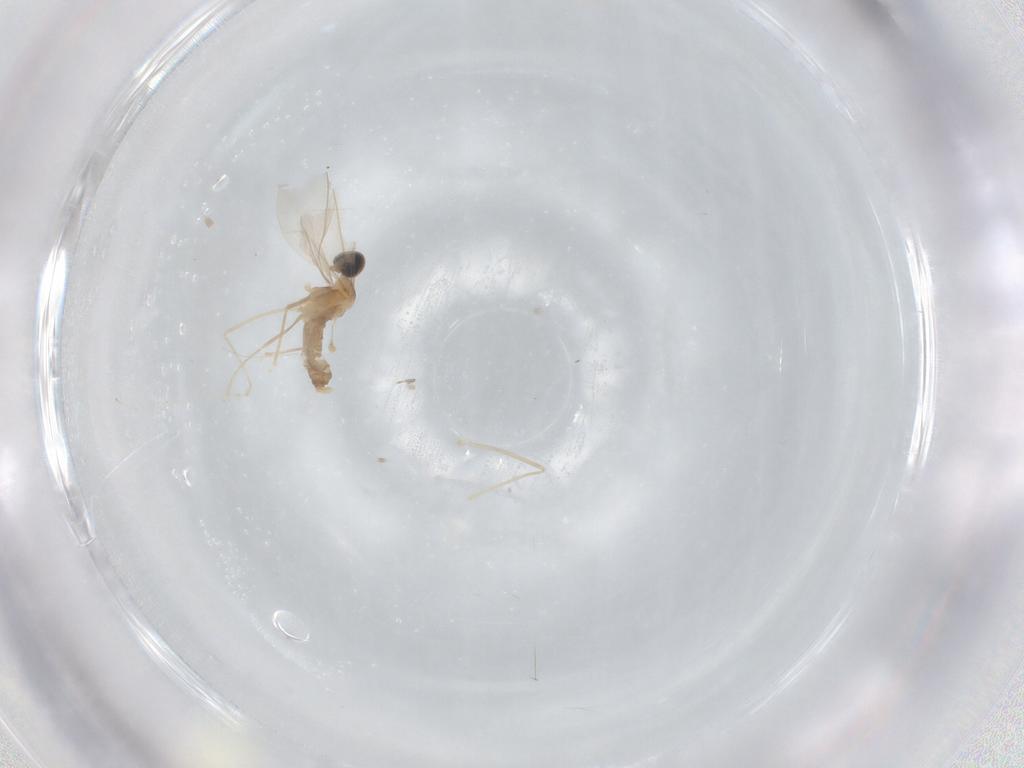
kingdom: Animalia
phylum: Arthropoda
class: Insecta
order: Diptera
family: Cecidomyiidae
